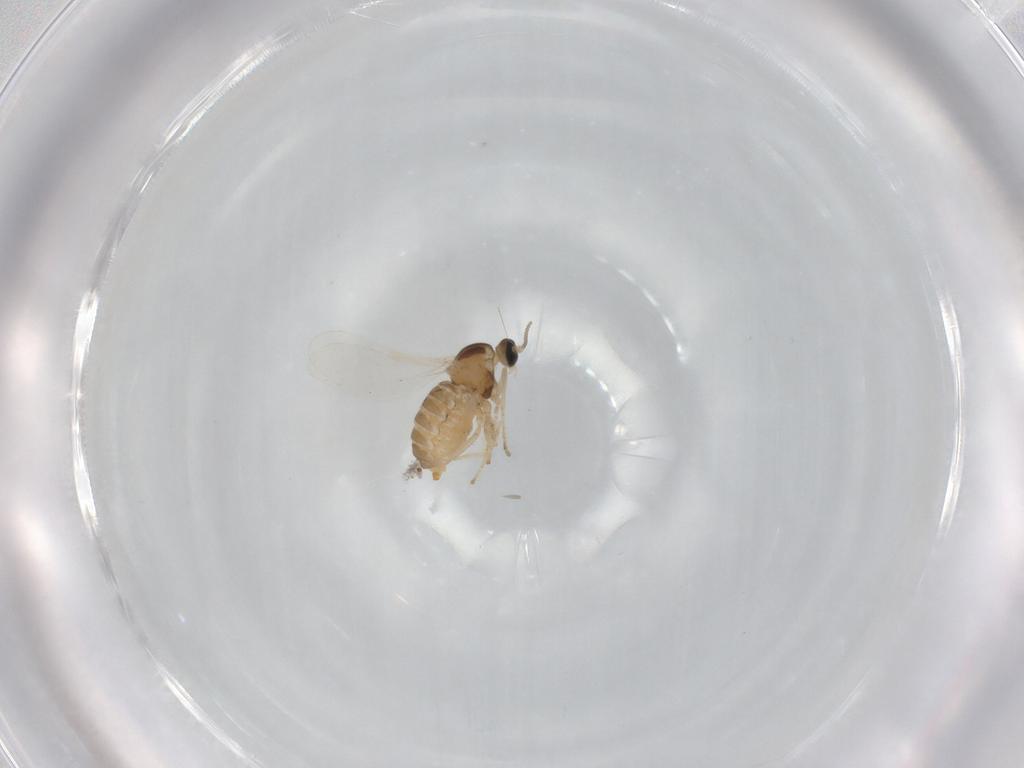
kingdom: Animalia
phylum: Arthropoda
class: Insecta
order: Diptera
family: Cecidomyiidae
